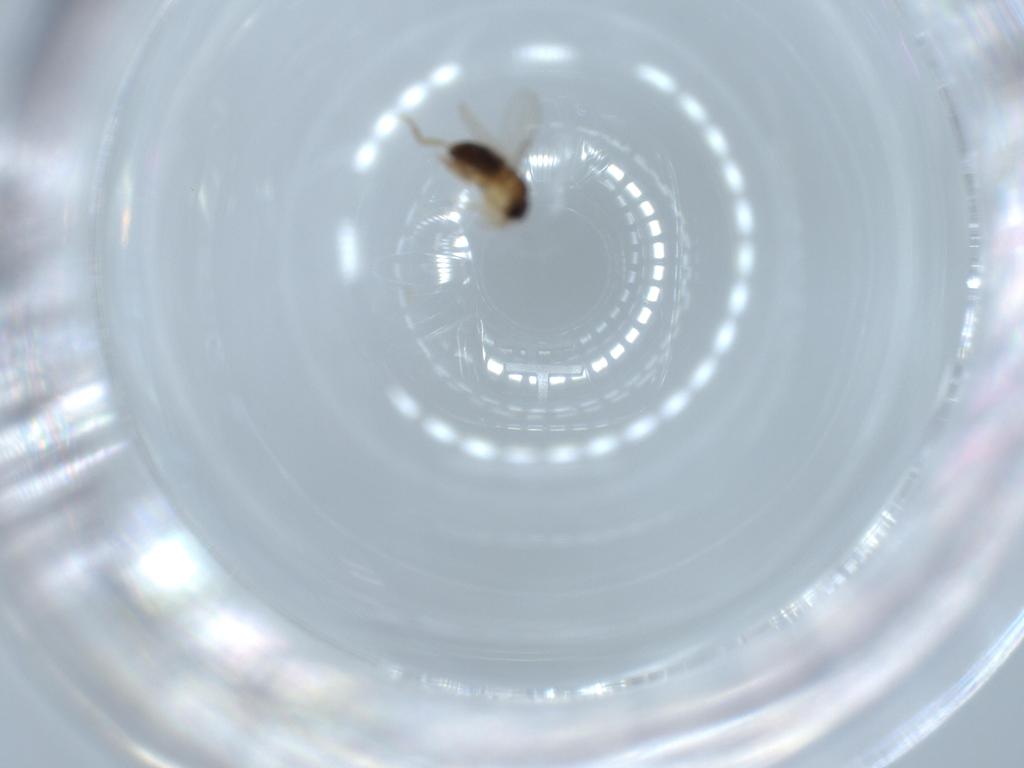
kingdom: Animalia
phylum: Arthropoda
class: Insecta
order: Diptera
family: Phoridae
